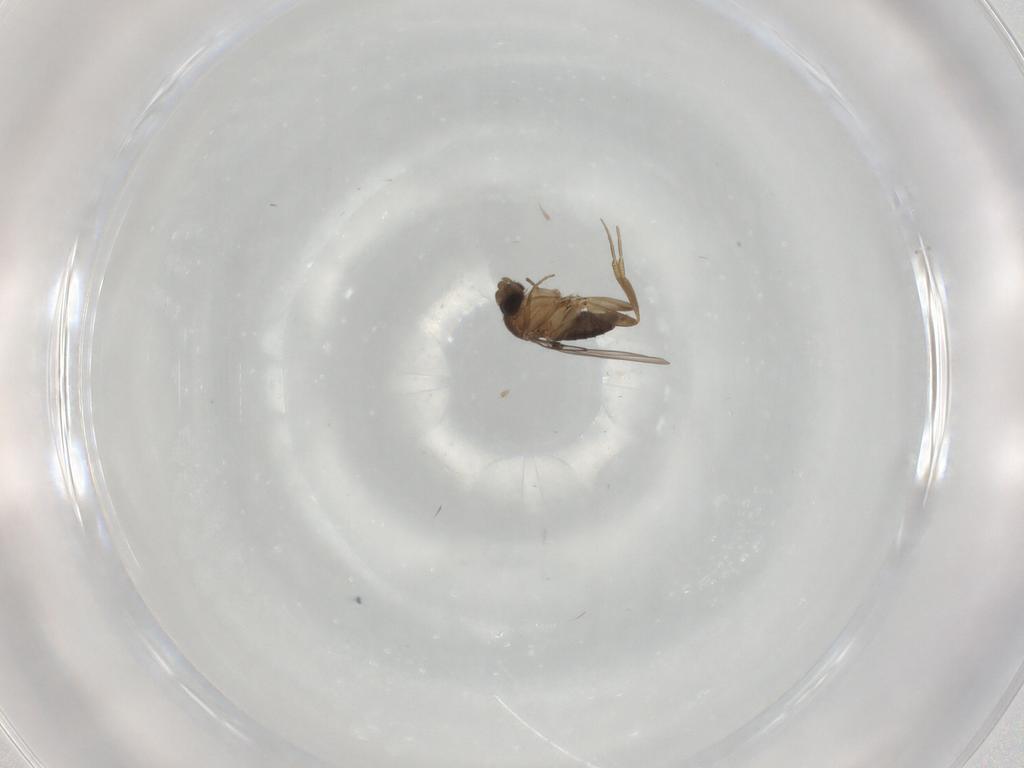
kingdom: Animalia
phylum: Arthropoda
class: Insecta
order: Diptera
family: Phoridae
